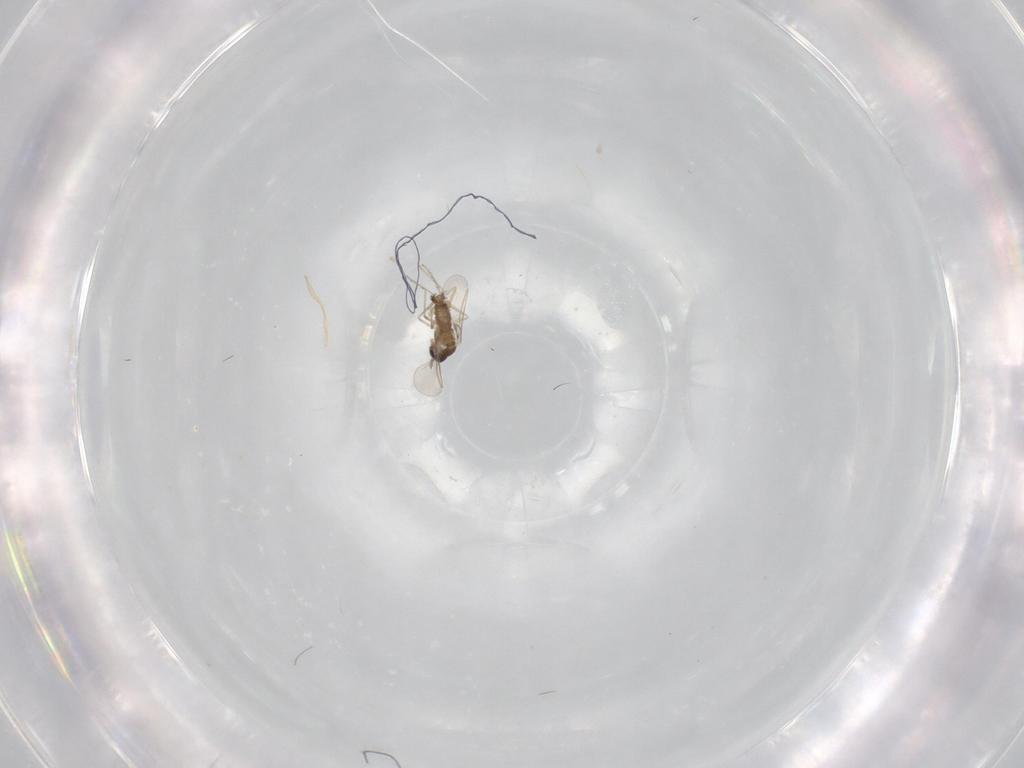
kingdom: Animalia
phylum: Arthropoda
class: Insecta
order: Diptera
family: Cecidomyiidae
